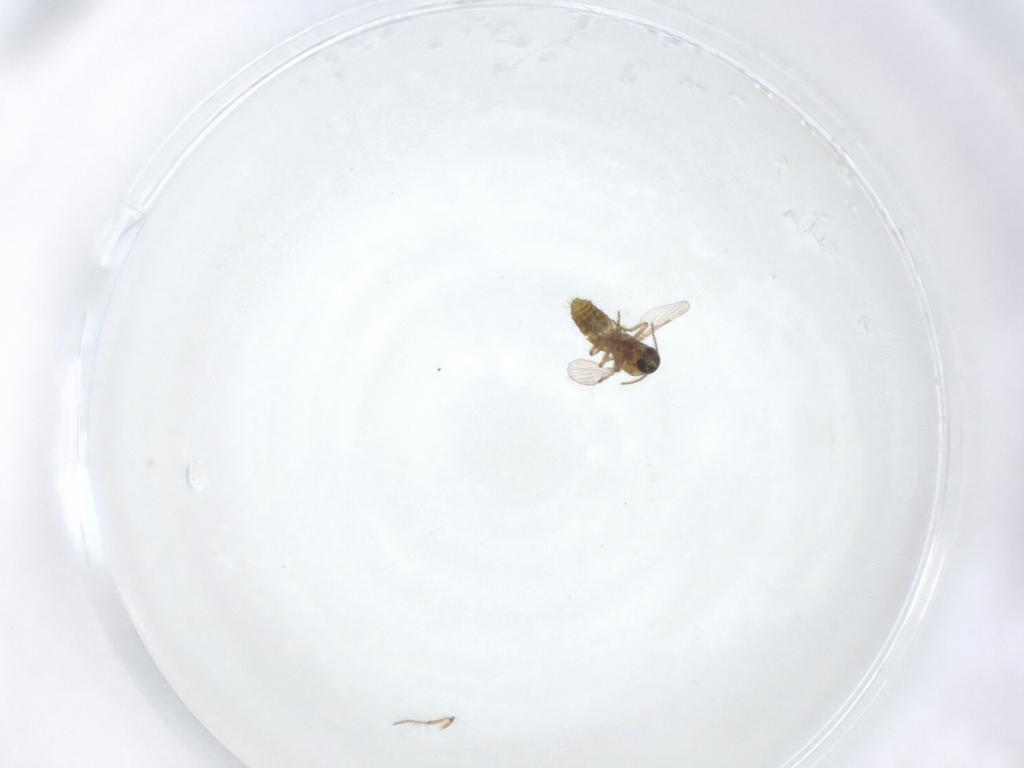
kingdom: Animalia
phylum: Arthropoda
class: Insecta
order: Diptera
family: Ceratopogonidae
